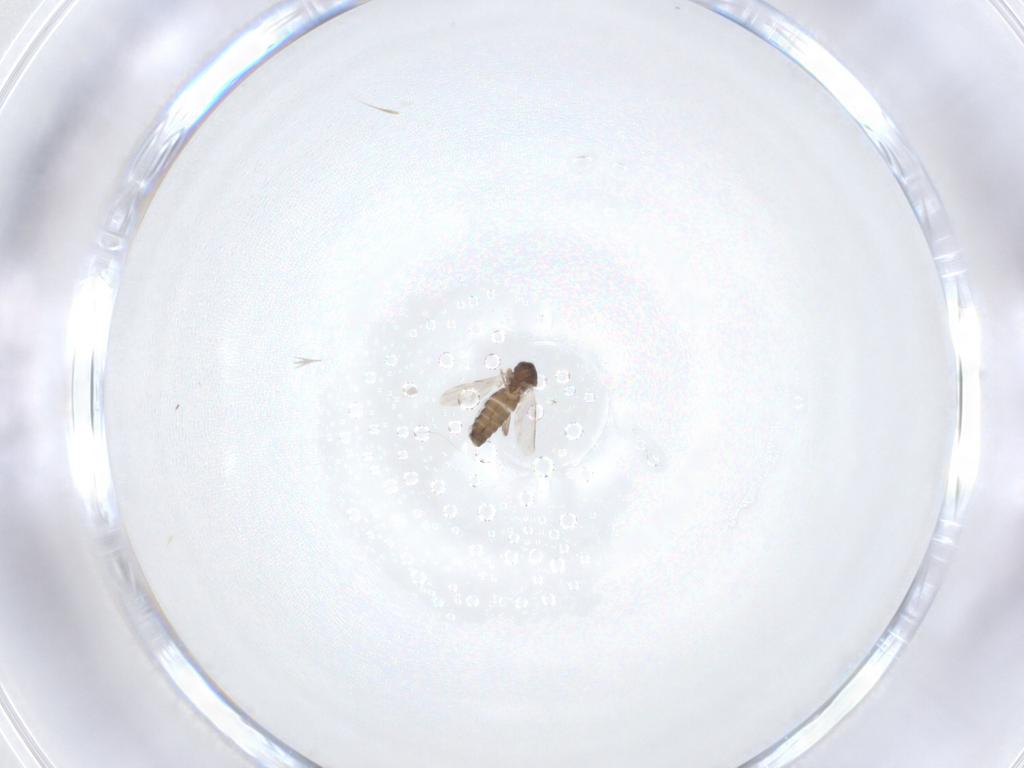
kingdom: Animalia
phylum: Arthropoda
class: Insecta
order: Diptera
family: Ceratopogonidae
